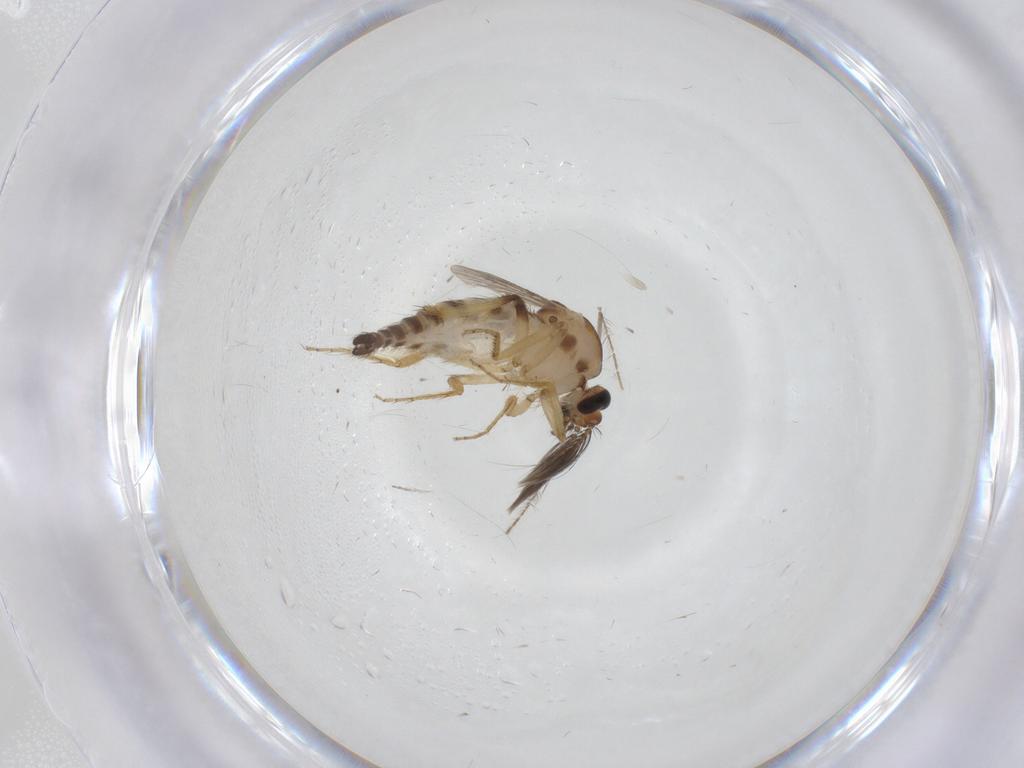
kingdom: Animalia
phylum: Arthropoda
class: Insecta
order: Diptera
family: Ceratopogonidae
